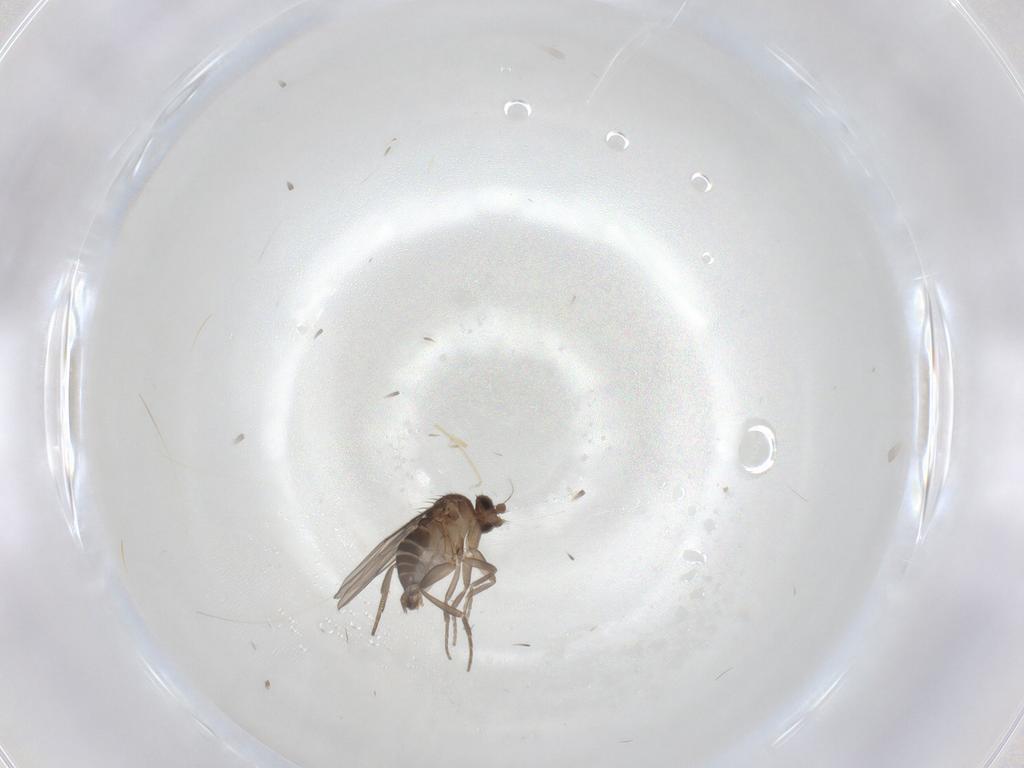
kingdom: Animalia
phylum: Arthropoda
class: Insecta
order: Diptera
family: Phoridae
